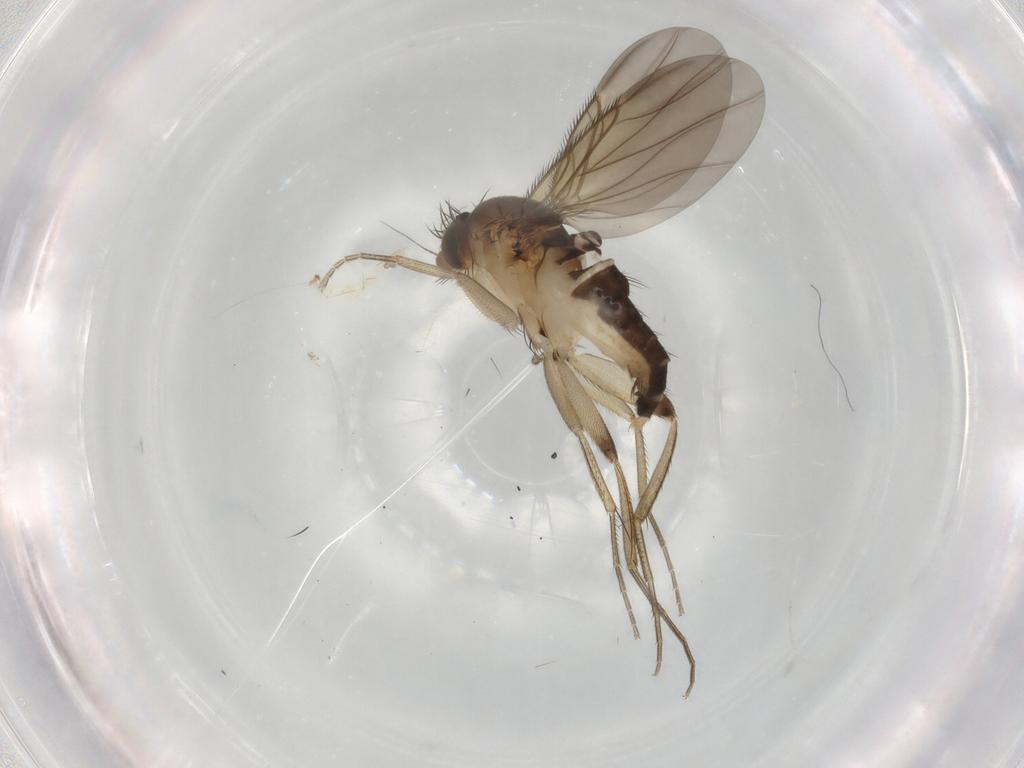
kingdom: Animalia
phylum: Arthropoda
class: Insecta
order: Diptera
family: Phoridae
